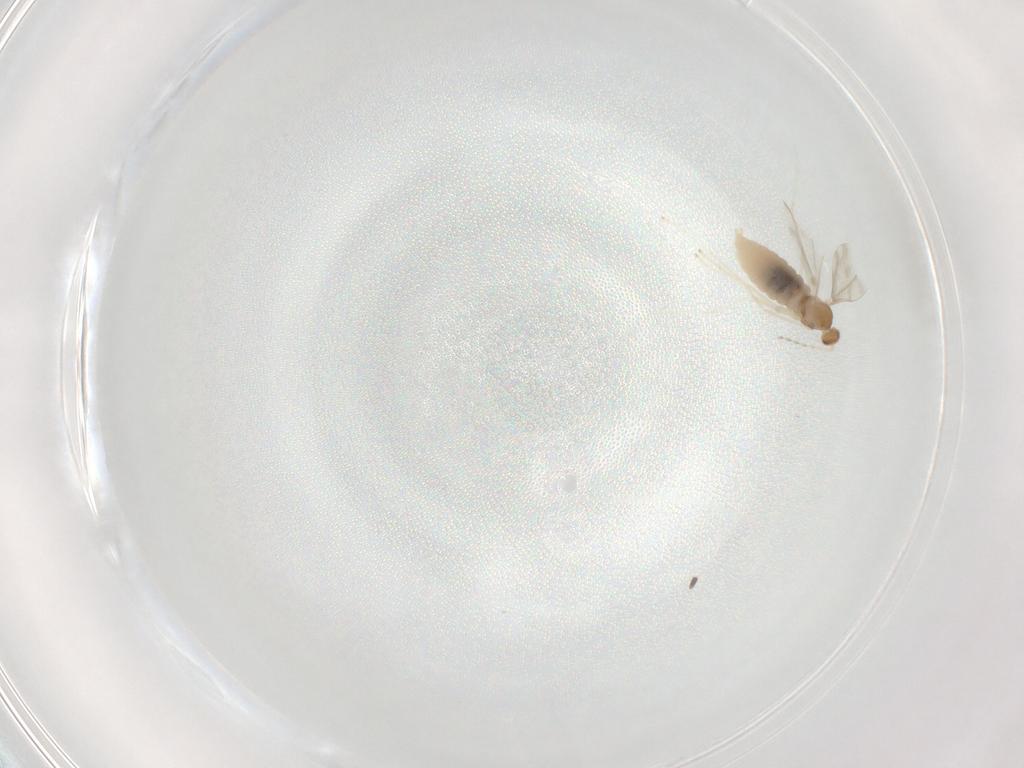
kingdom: Animalia
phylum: Arthropoda
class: Insecta
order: Diptera
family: Cecidomyiidae
